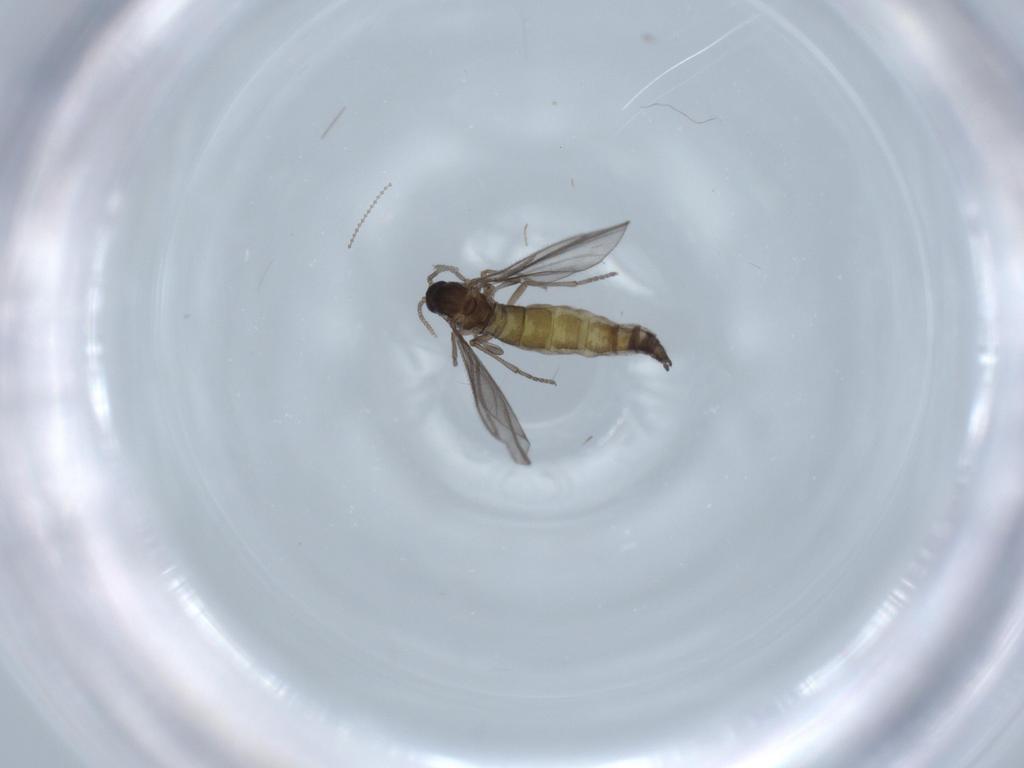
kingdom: Animalia
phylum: Arthropoda
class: Insecta
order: Diptera
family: Sciaridae
